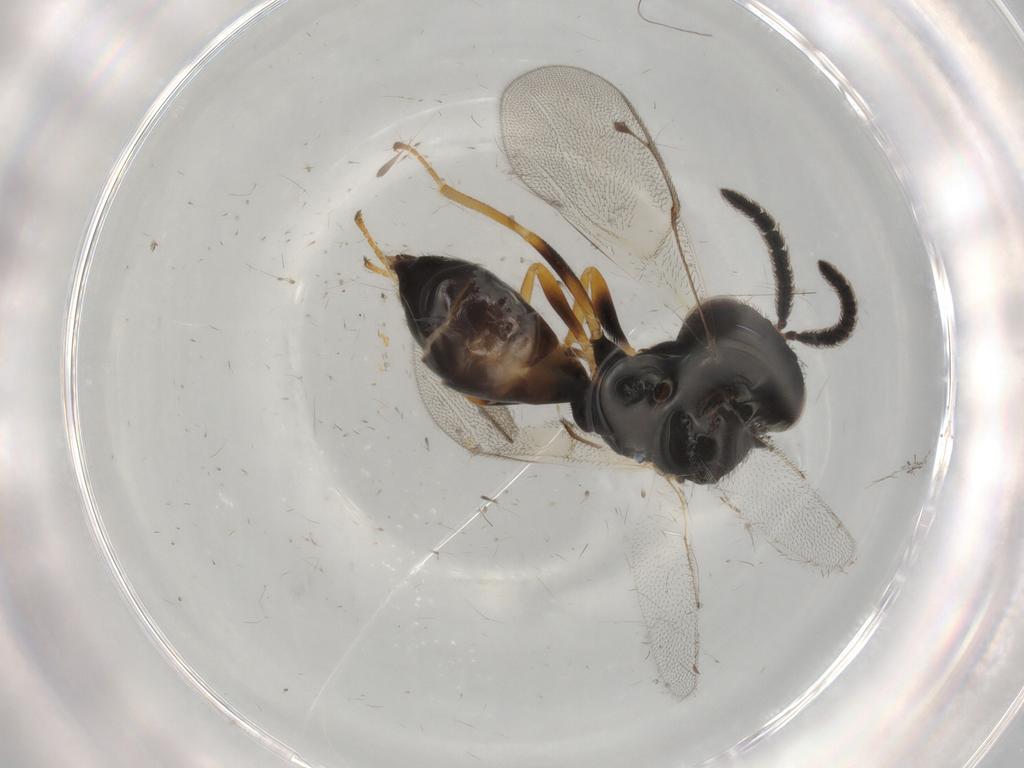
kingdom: Animalia
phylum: Arthropoda
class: Insecta
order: Hymenoptera
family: Pteromalidae
